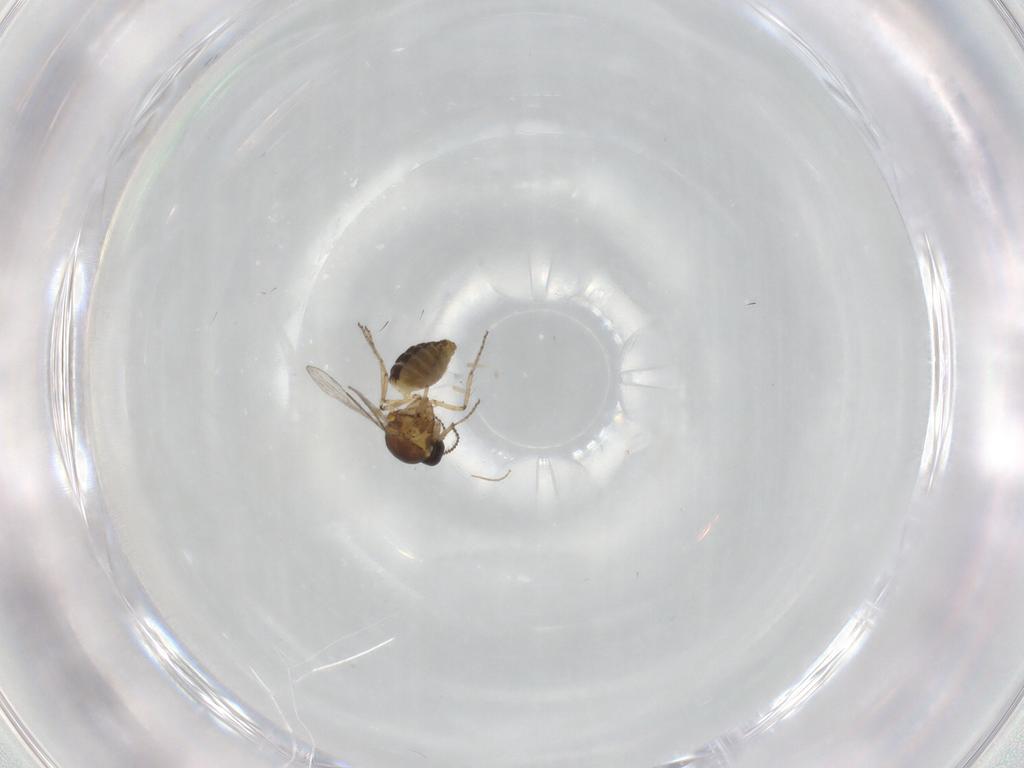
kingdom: Animalia
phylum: Arthropoda
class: Insecta
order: Diptera
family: Ceratopogonidae
